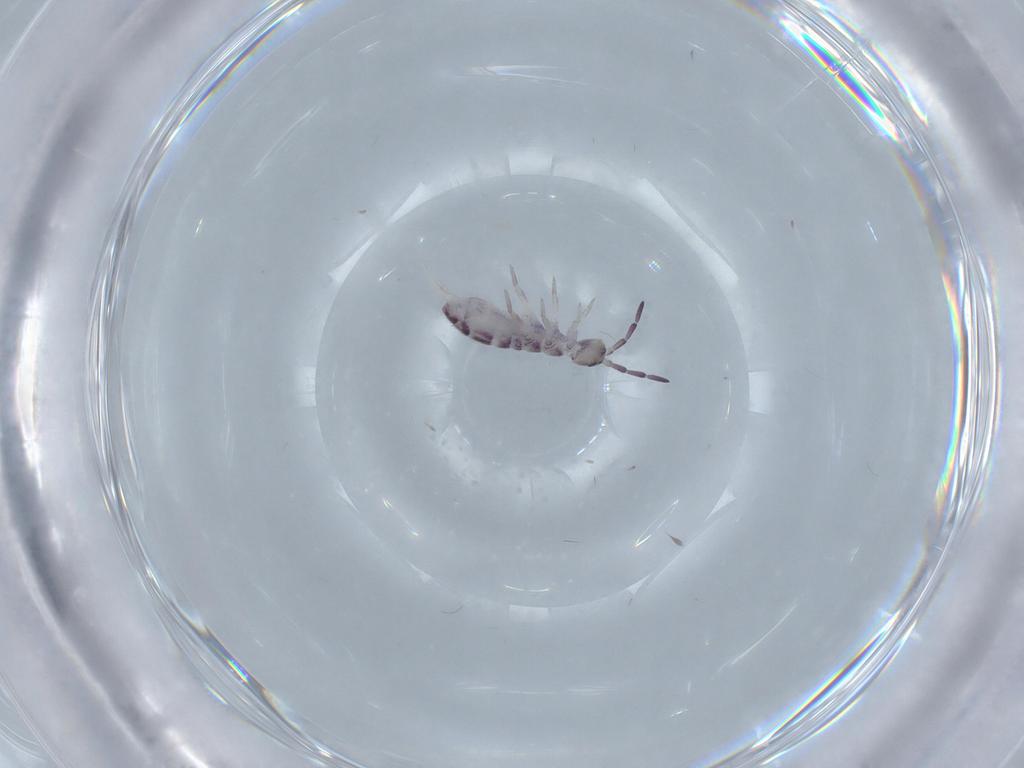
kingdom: Animalia
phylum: Arthropoda
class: Collembola
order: Entomobryomorpha
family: Isotomidae
